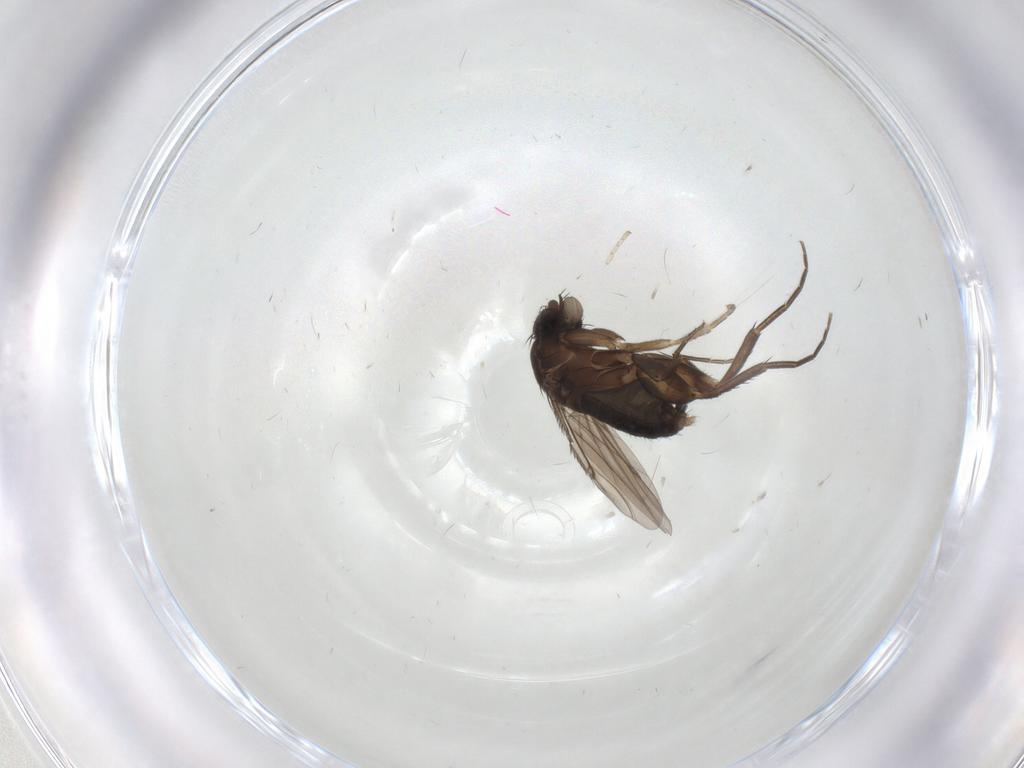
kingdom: Animalia
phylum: Arthropoda
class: Insecta
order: Diptera
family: Phoridae
